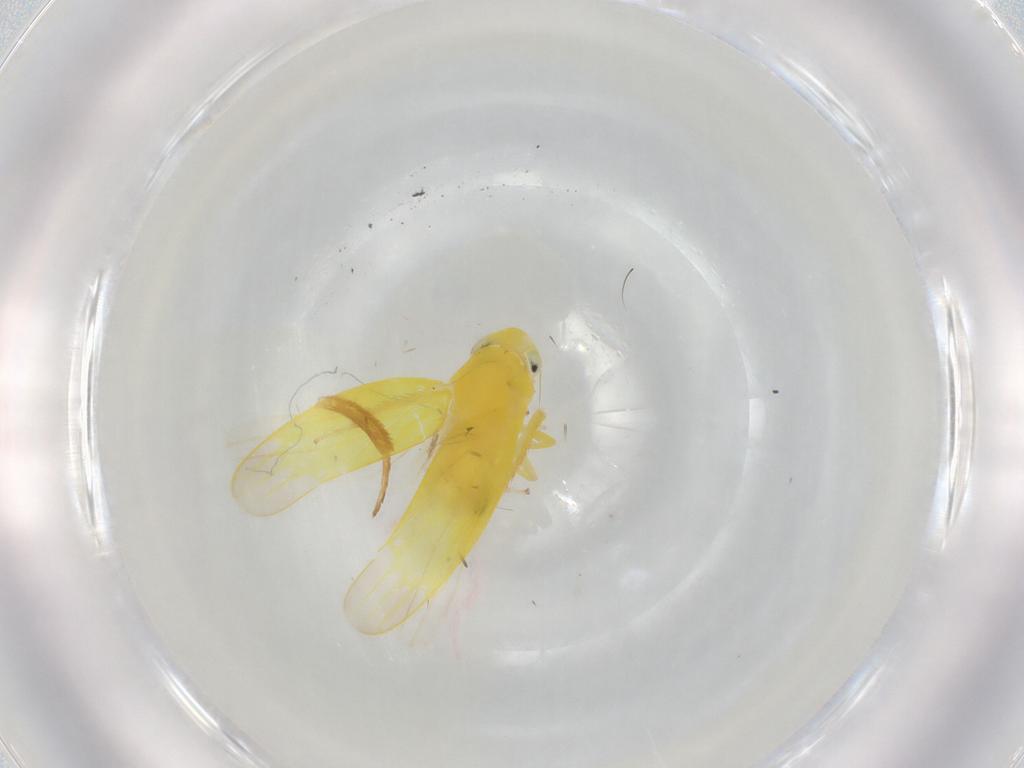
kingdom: Animalia
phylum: Arthropoda
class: Insecta
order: Hemiptera
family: Cicadellidae
